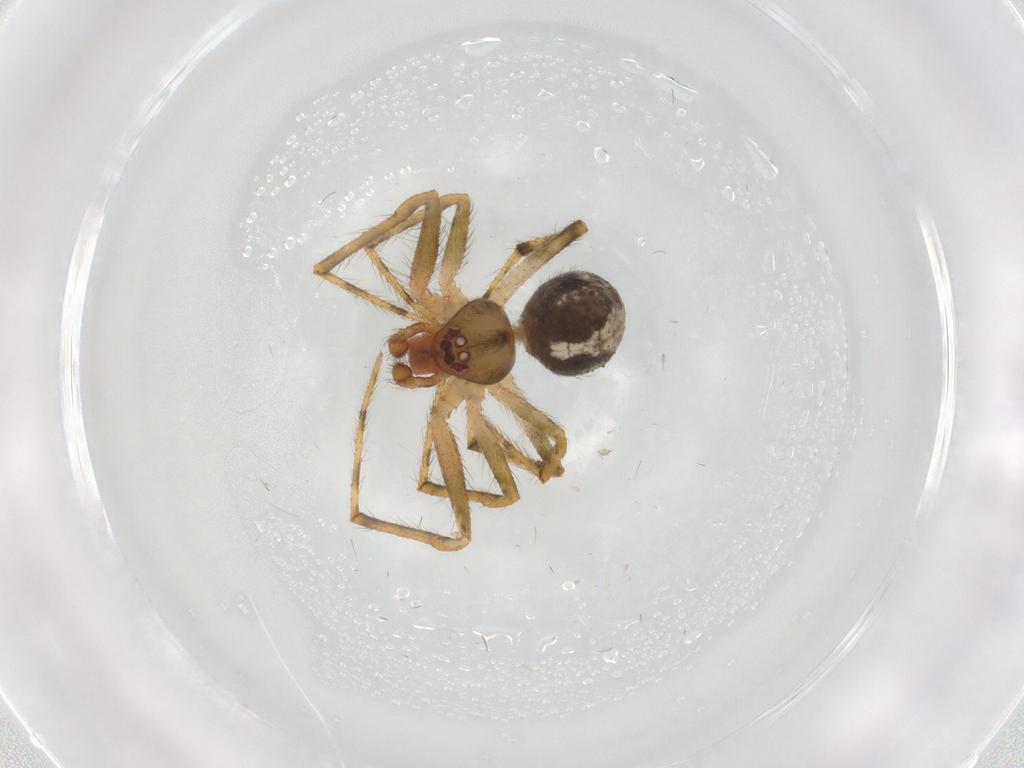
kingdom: Animalia
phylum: Arthropoda
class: Arachnida
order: Araneae
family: Theridiidae
